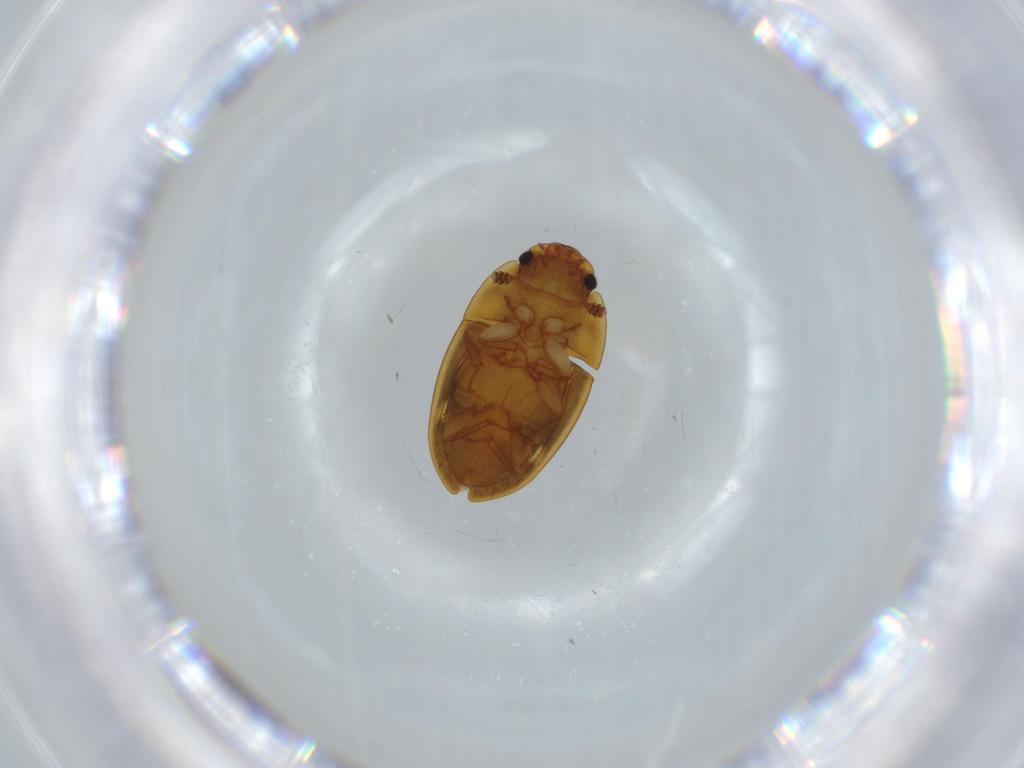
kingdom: Animalia
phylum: Arthropoda
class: Insecta
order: Coleoptera
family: Nitidulidae
